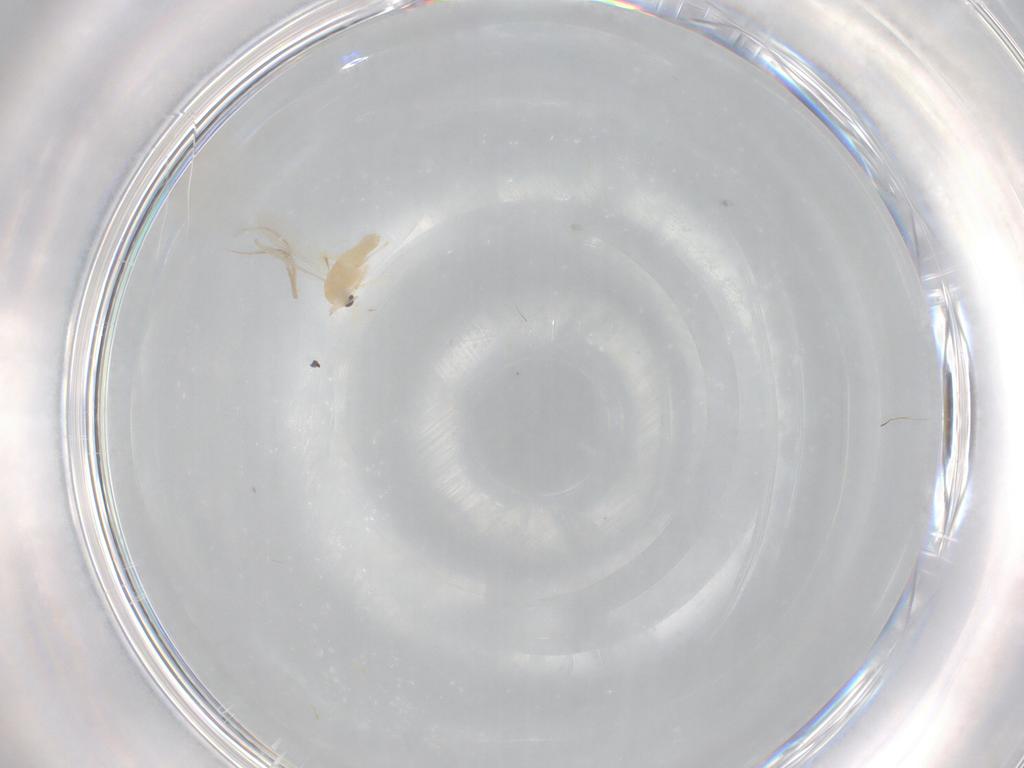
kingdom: Animalia
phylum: Arthropoda
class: Insecta
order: Diptera
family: Chironomidae
